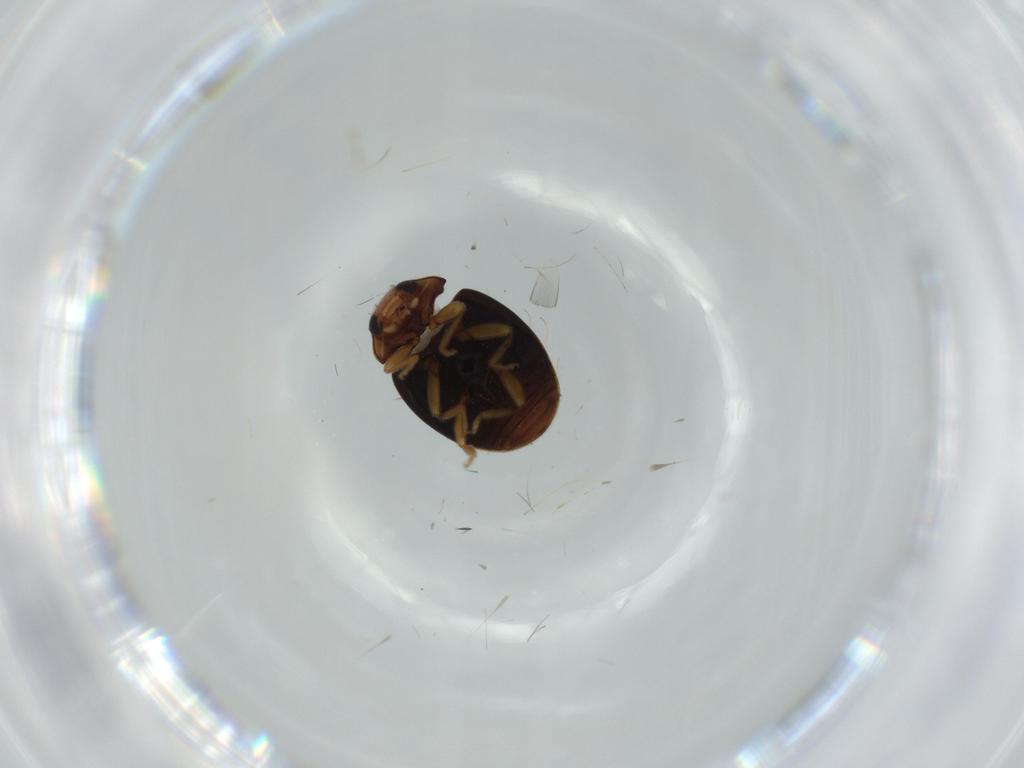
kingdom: Animalia
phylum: Arthropoda
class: Insecta
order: Coleoptera
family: Coccinellidae
